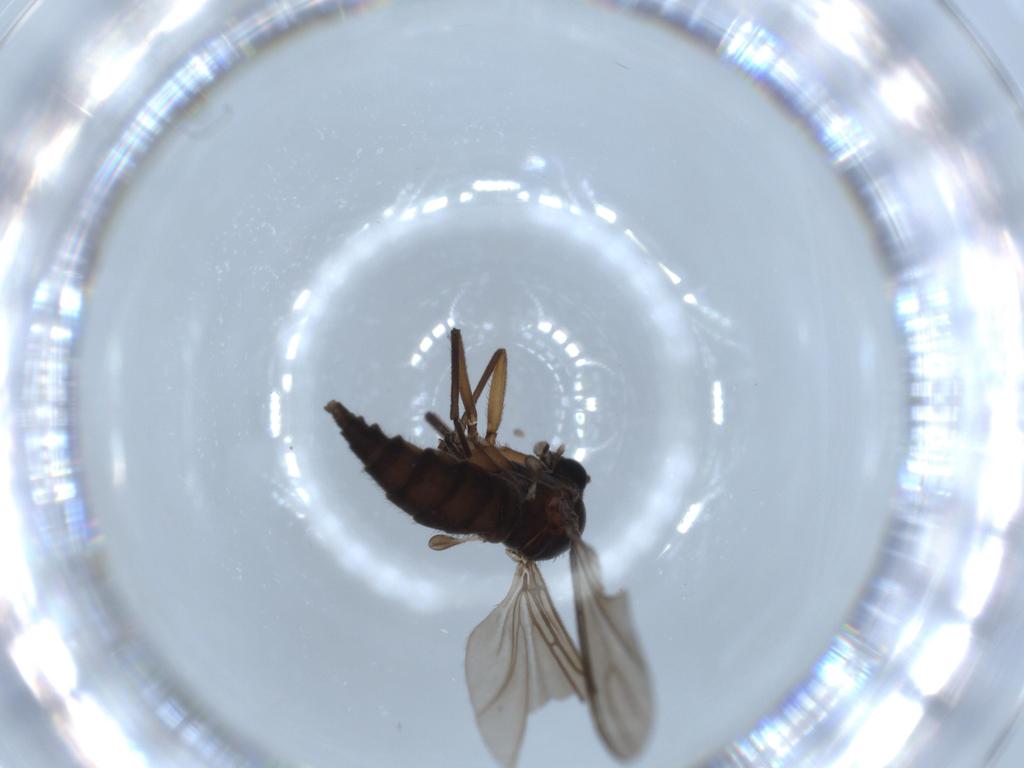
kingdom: Animalia
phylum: Arthropoda
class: Insecta
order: Diptera
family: Sciaridae
